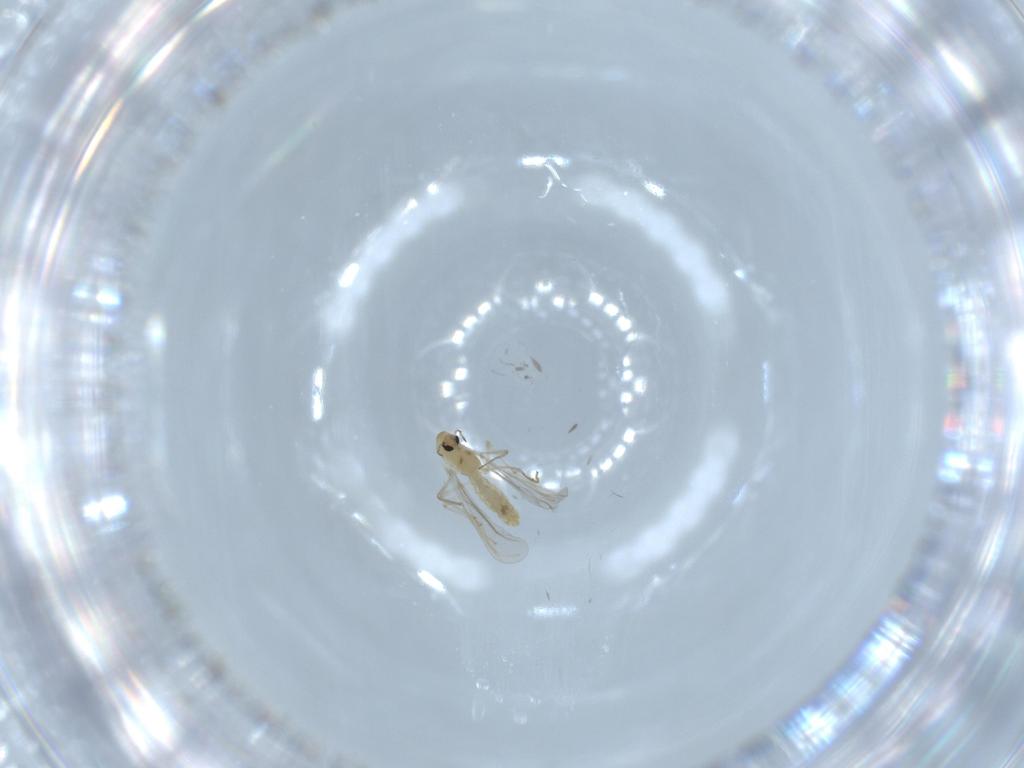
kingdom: Animalia
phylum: Arthropoda
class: Insecta
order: Diptera
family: Chironomidae
